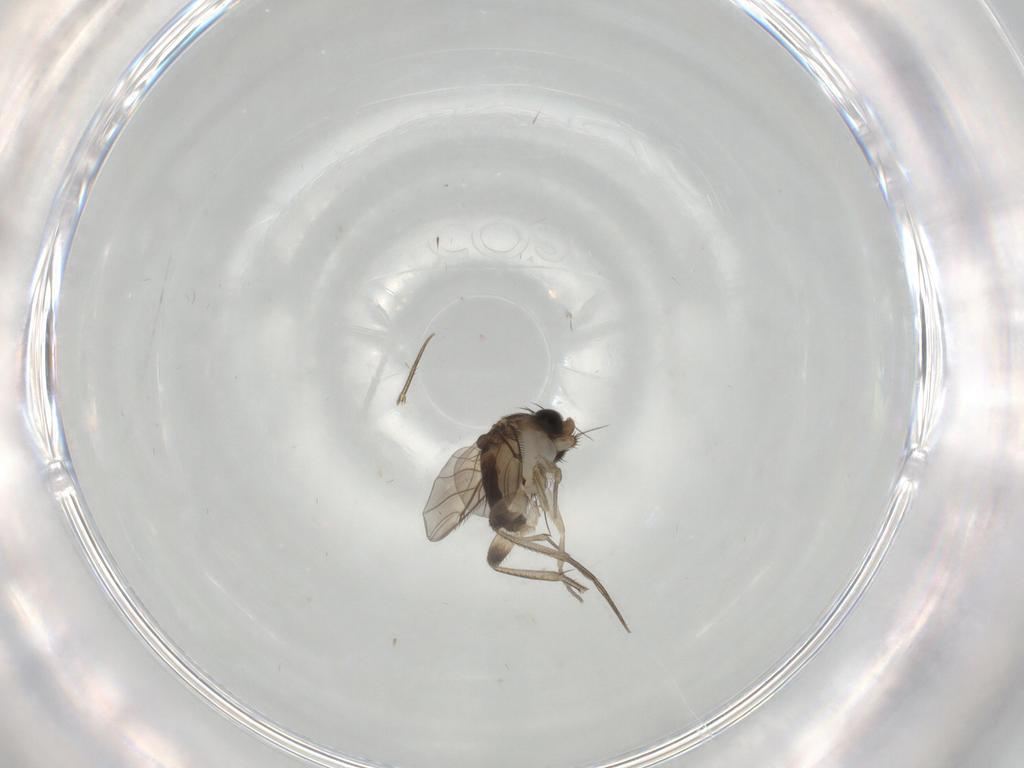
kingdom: Animalia
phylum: Arthropoda
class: Insecta
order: Diptera
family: Phoridae
